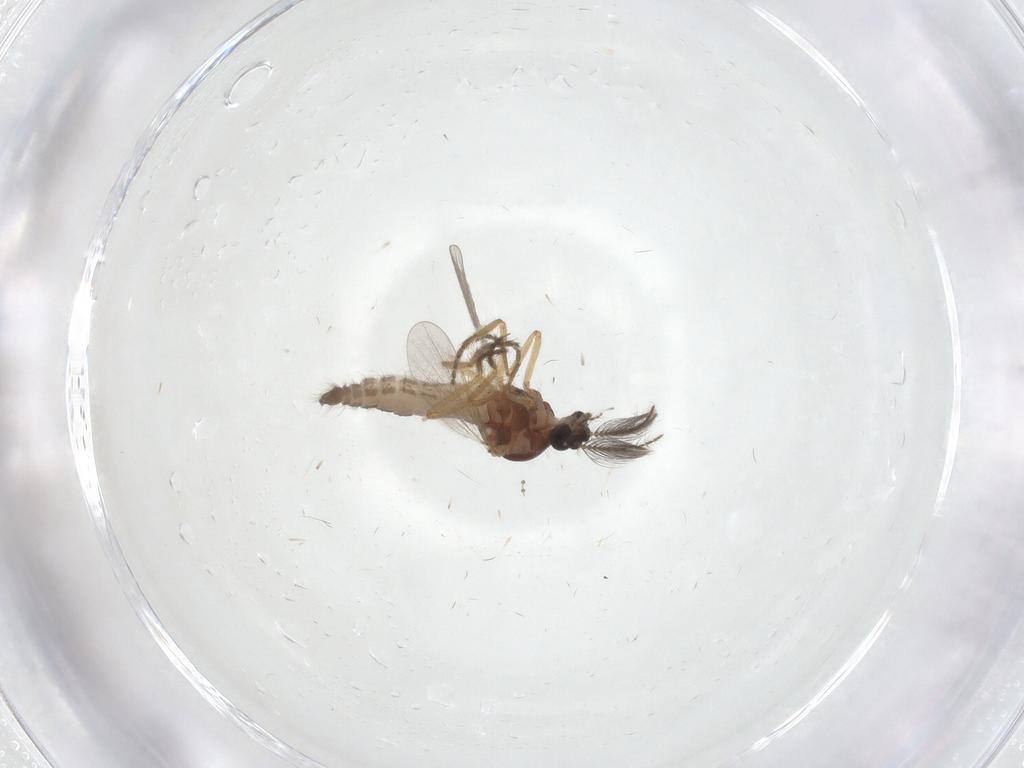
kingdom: Animalia
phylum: Arthropoda
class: Insecta
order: Diptera
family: Ceratopogonidae
